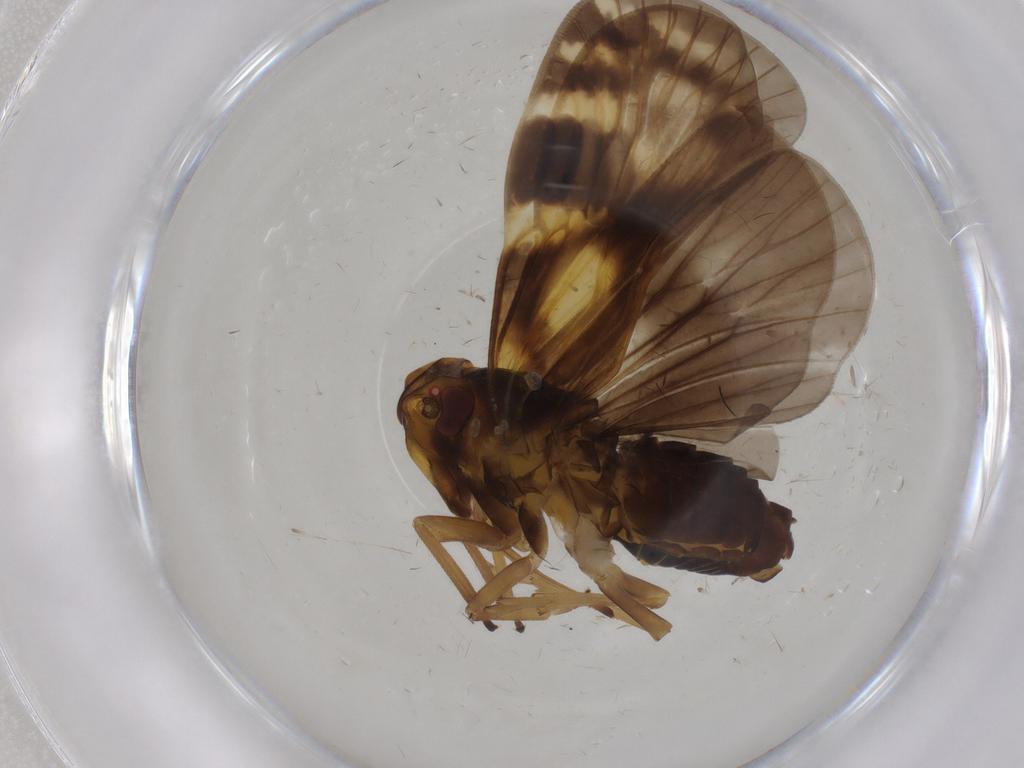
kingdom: Animalia
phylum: Arthropoda
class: Insecta
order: Hemiptera
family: Cixiidae
